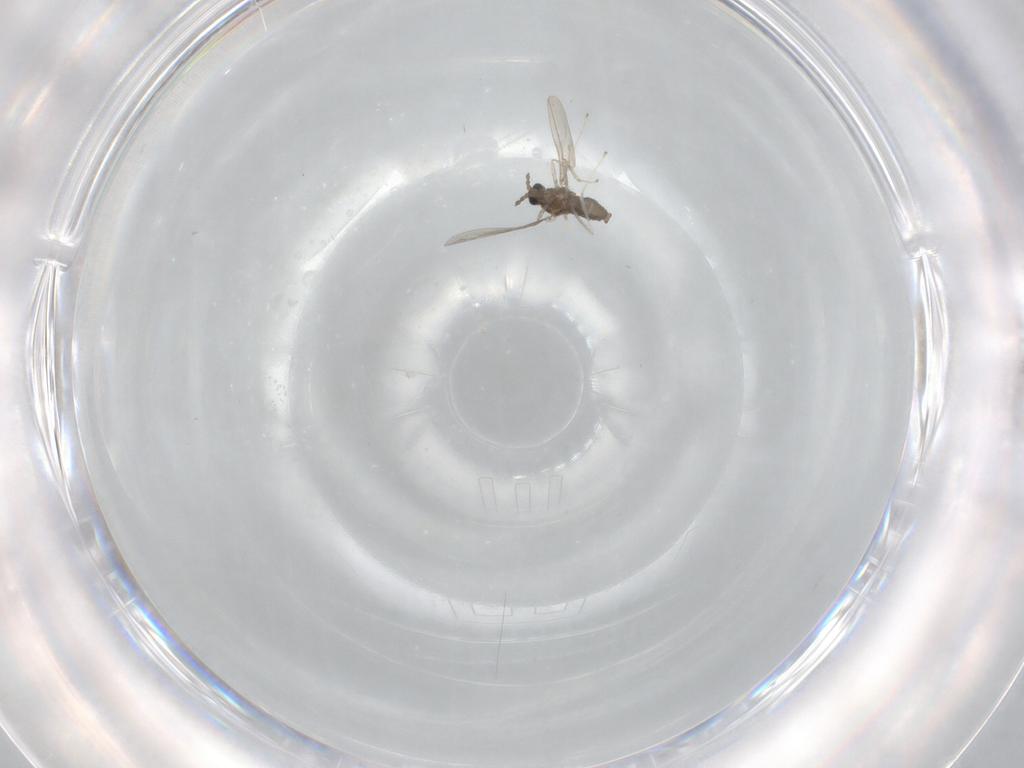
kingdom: Animalia
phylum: Arthropoda
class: Insecta
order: Diptera
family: Cecidomyiidae
